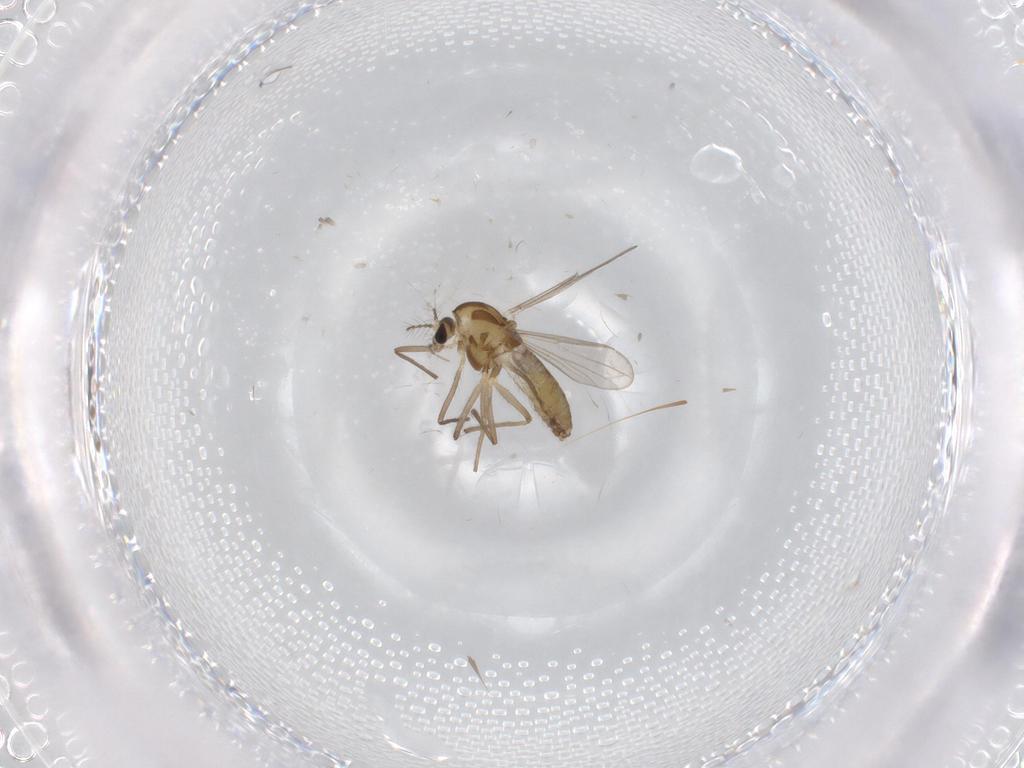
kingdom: Animalia
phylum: Arthropoda
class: Insecta
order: Diptera
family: Chironomidae
